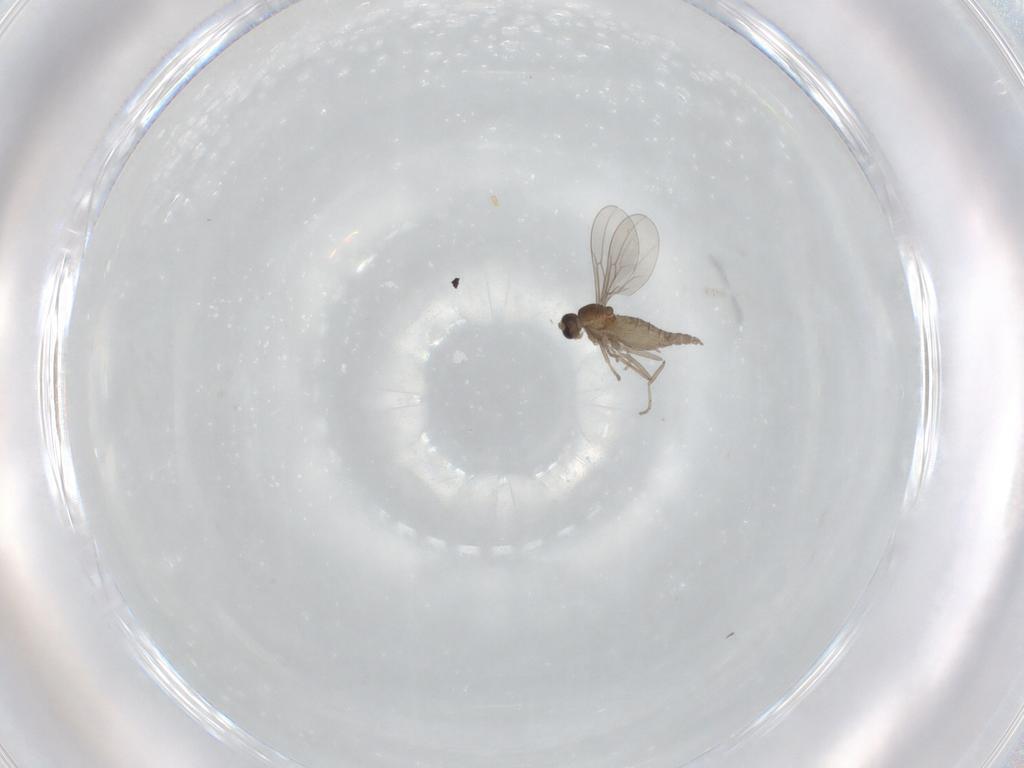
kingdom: Animalia
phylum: Arthropoda
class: Insecta
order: Diptera
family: Cecidomyiidae
